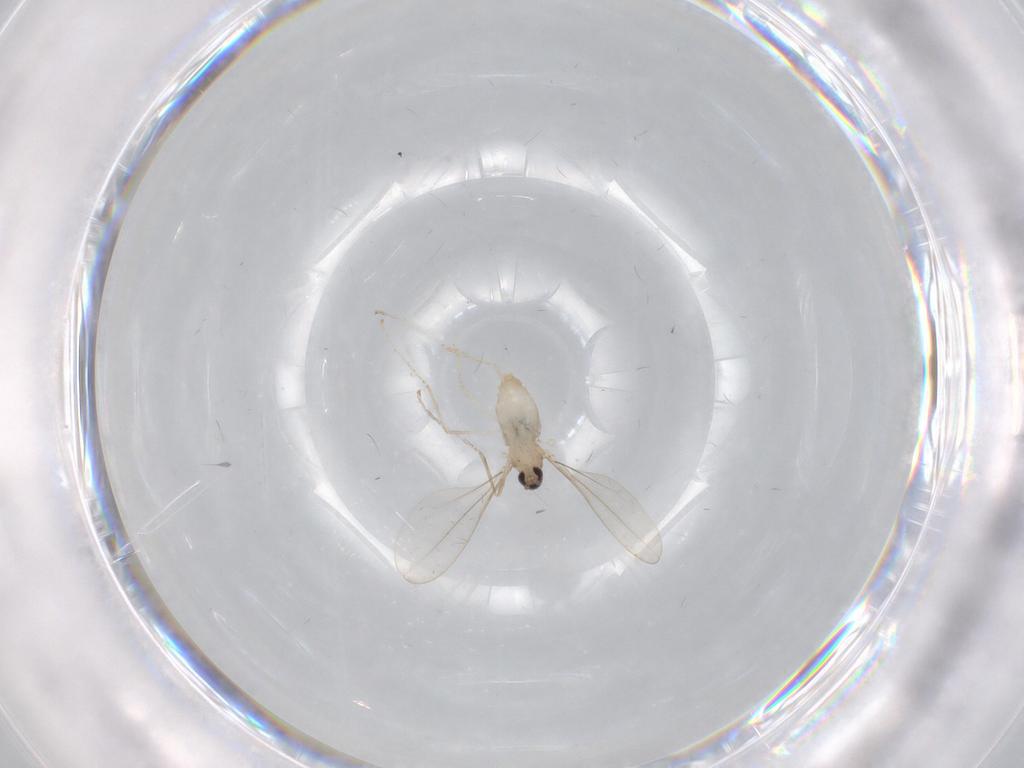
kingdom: Animalia
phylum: Arthropoda
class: Insecta
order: Diptera
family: Cecidomyiidae
